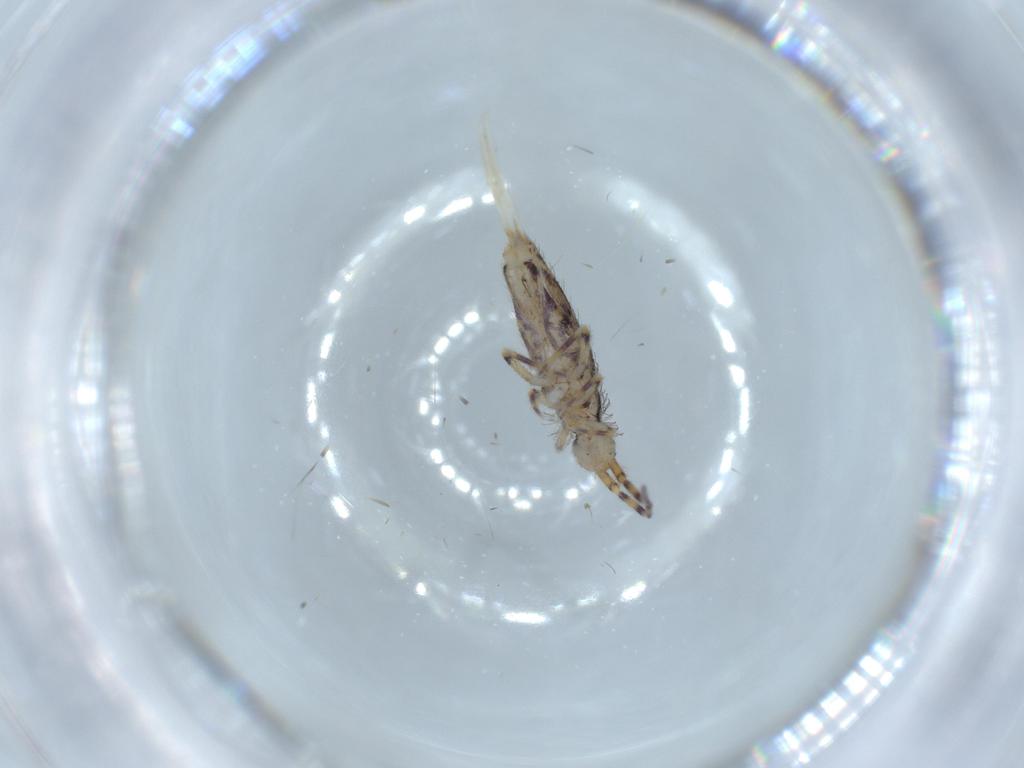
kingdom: Animalia
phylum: Arthropoda
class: Collembola
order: Entomobryomorpha
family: Entomobryidae
